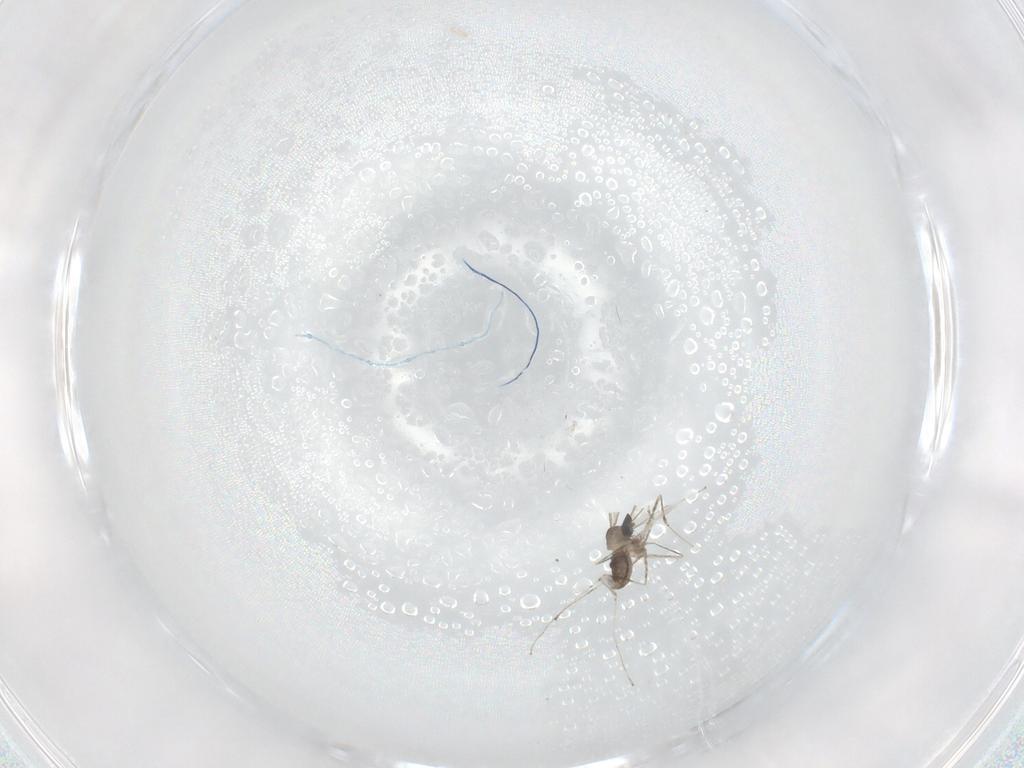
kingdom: Animalia
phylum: Arthropoda
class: Insecta
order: Diptera
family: Cecidomyiidae
